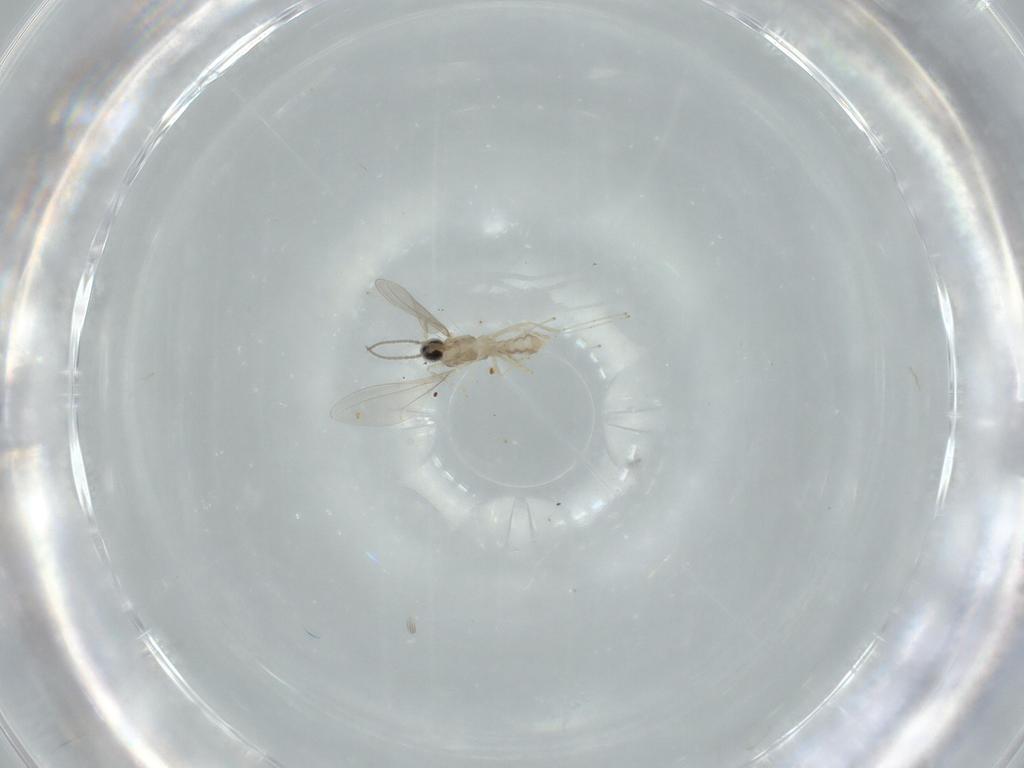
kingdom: Animalia
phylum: Arthropoda
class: Insecta
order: Diptera
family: Cecidomyiidae
